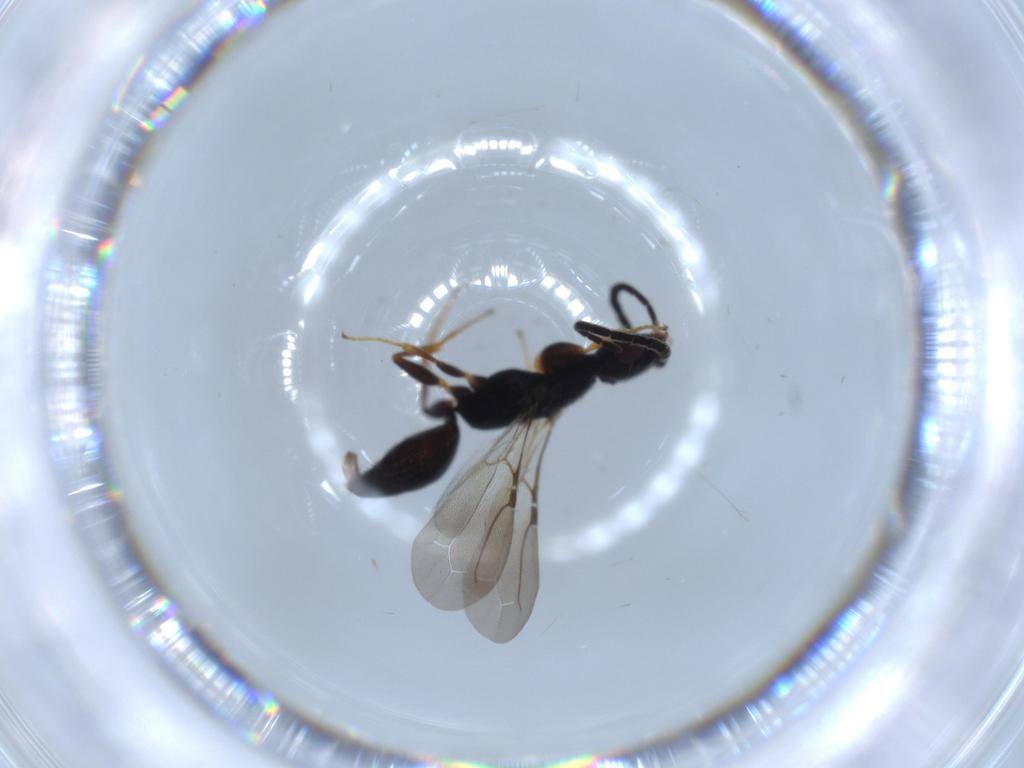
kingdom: Animalia
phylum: Arthropoda
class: Insecta
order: Hymenoptera
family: Bethylidae
